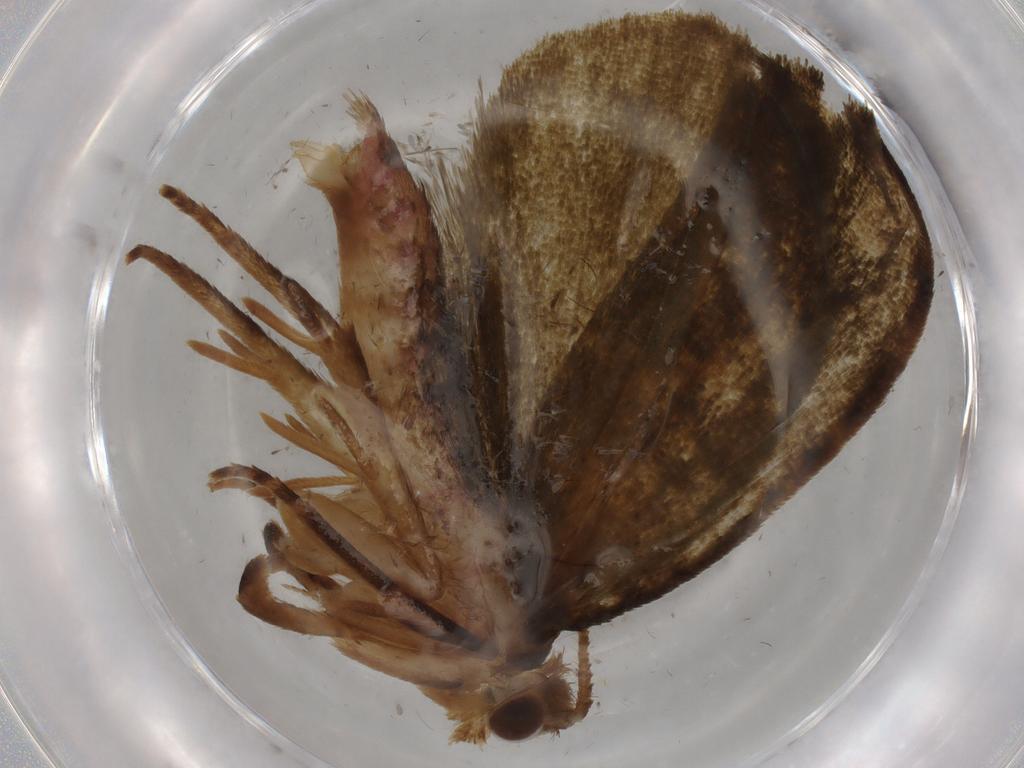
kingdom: Animalia
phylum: Arthropoda
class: Insecta
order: Lepidoptera
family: Geometridae
